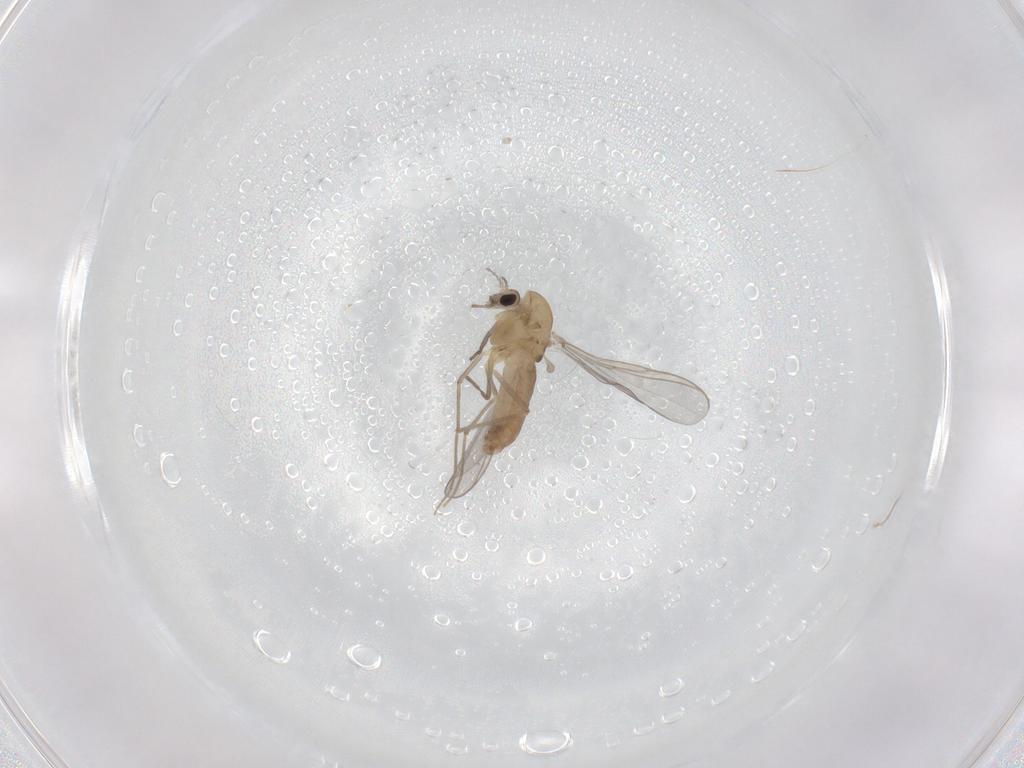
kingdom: Animalia
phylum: Arthropoda
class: Insecta
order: Diptera
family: Chironomidae
